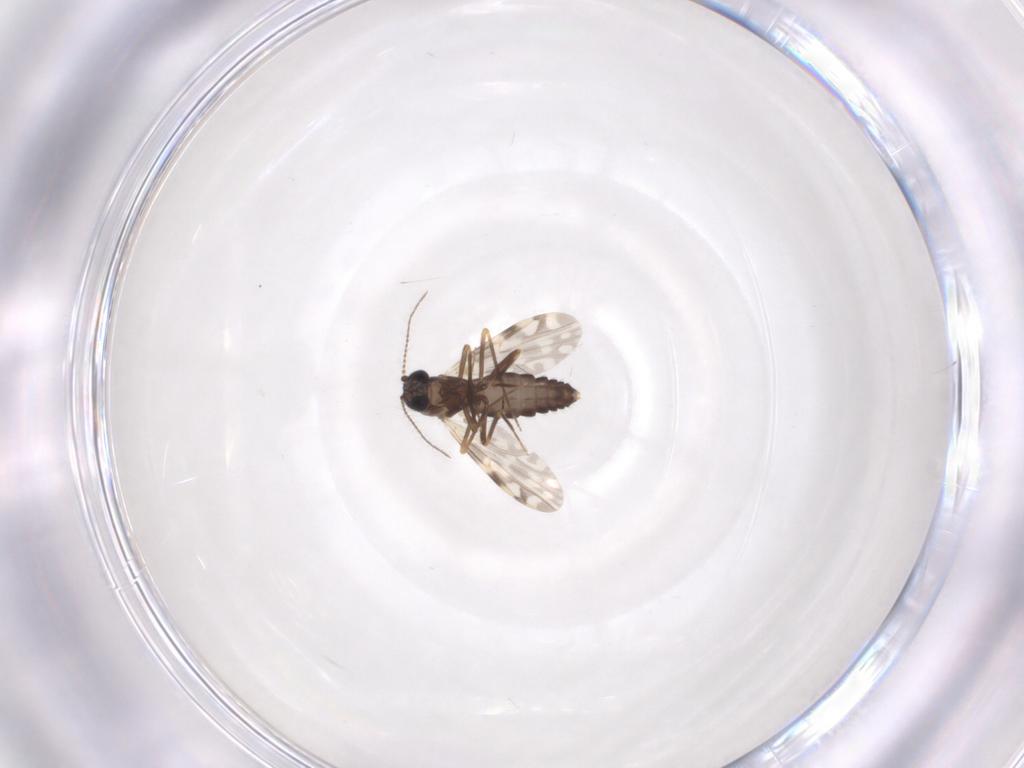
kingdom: Animalia
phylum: Arthropoda
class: Insecta
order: Diptera
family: Ceratopogonidae
